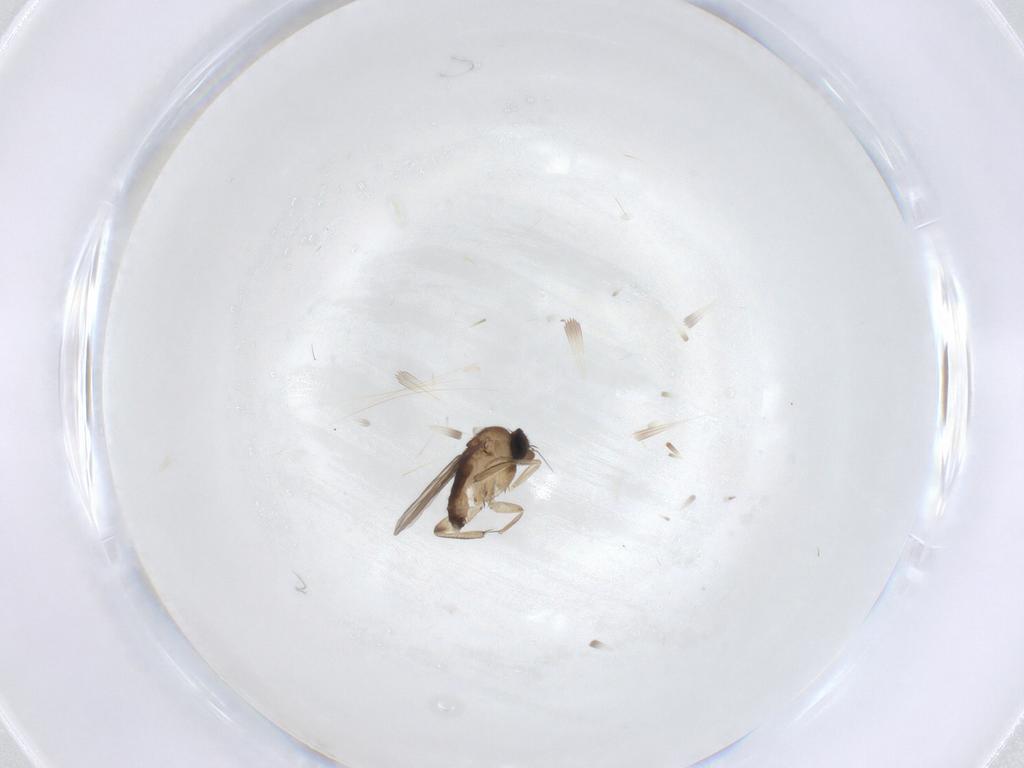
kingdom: Animalia
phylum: Arthropoda
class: Insecta
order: Diptera
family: Phoridae
